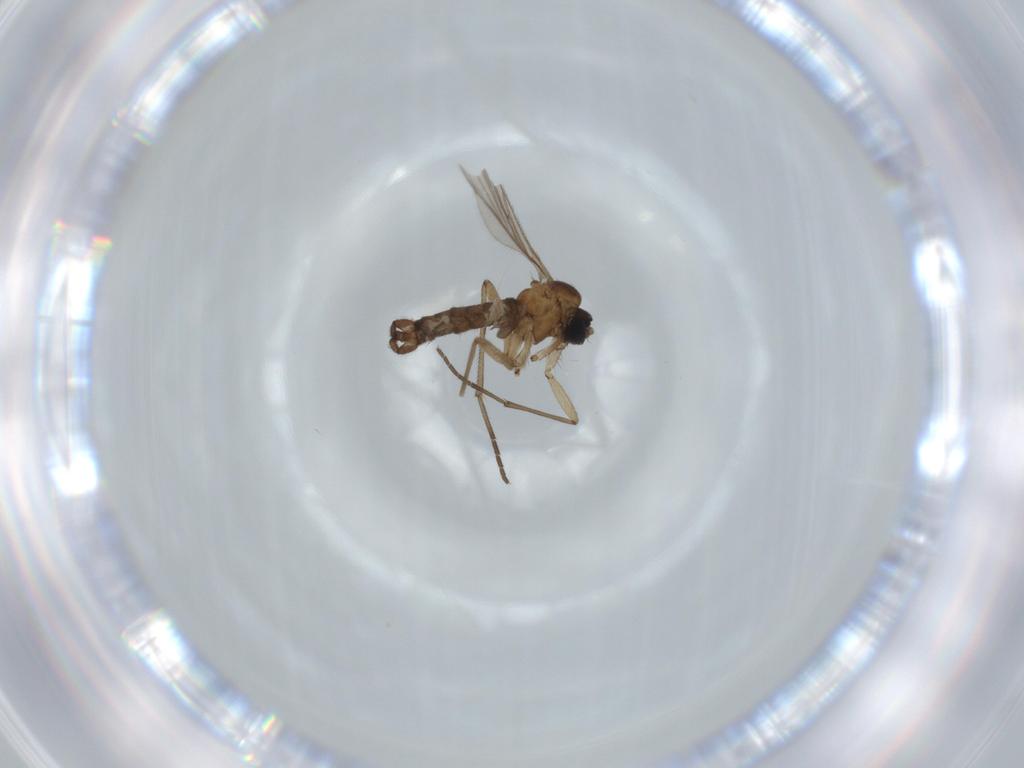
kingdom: Animalia
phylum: Arthropoda
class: Insecta
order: Diptera
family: Sciaridae
